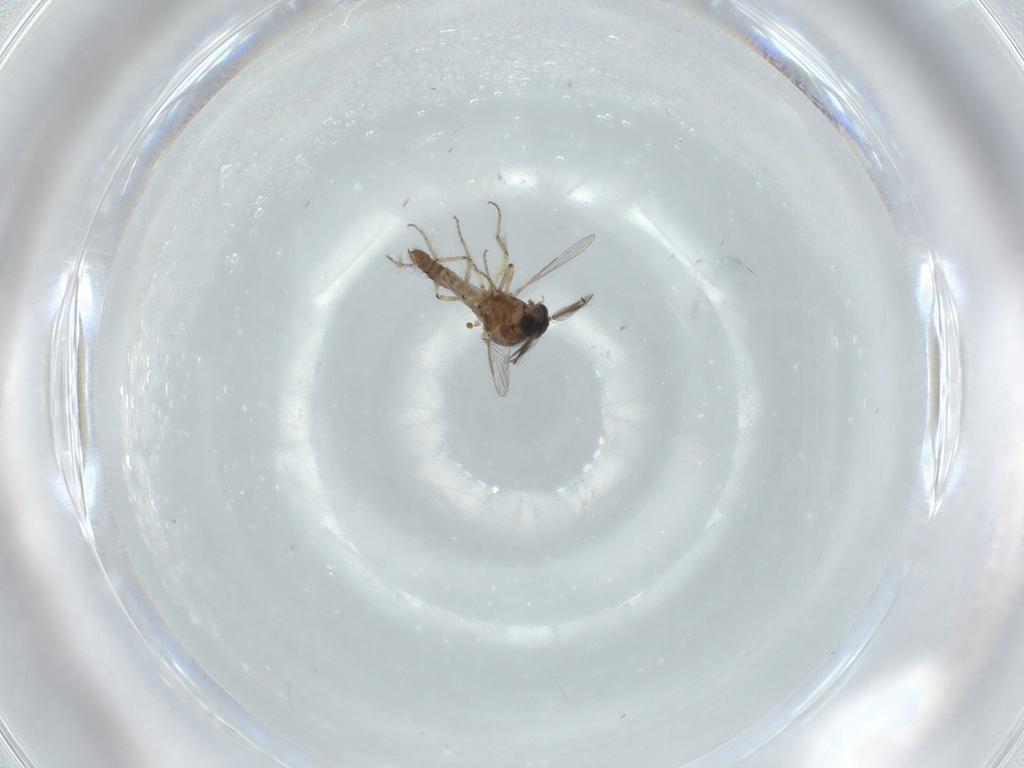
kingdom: Animalia
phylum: Arthropoda
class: Insecta
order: Diptera
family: Ceratopogonidae
